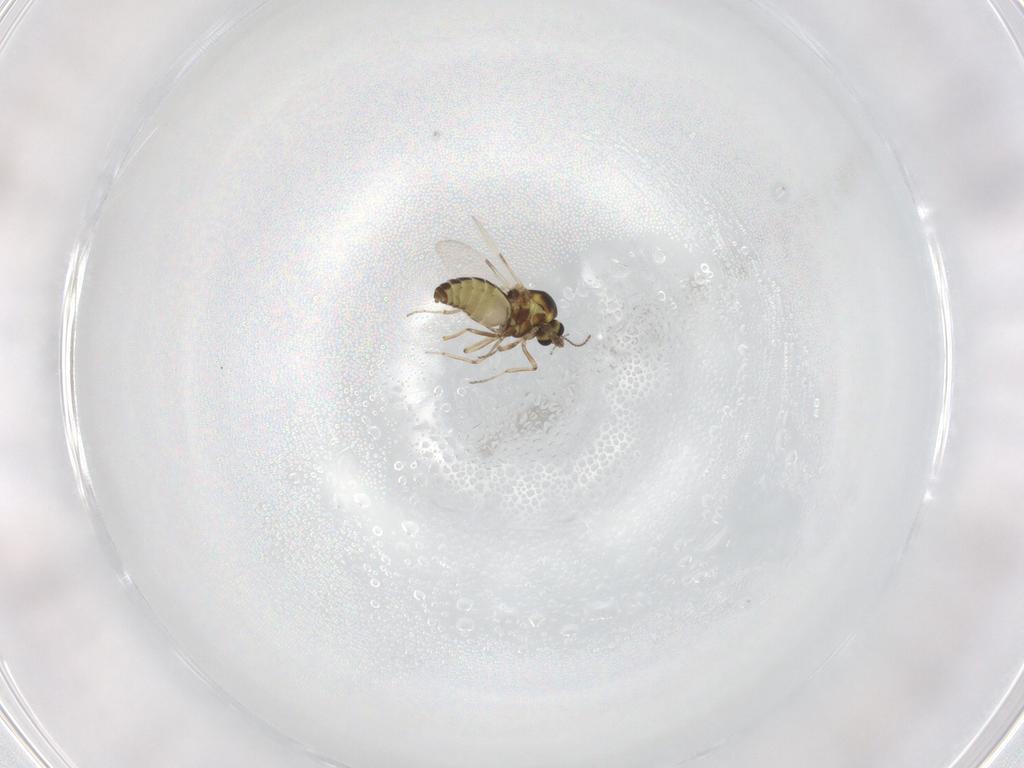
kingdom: Animalia
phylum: Arthropoda
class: Insecta
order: Diptera
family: Ceratopogonidae
